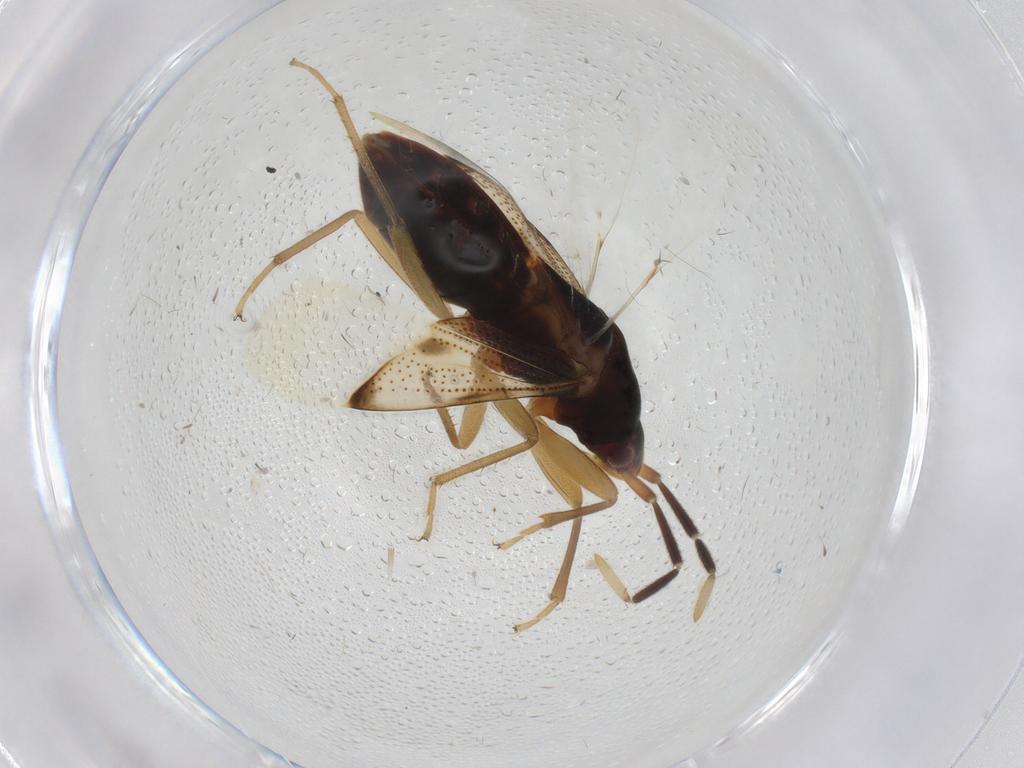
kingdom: Animalia
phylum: Arthropoda
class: Insecta
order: Hemiptera
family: Rhyparochromidae
